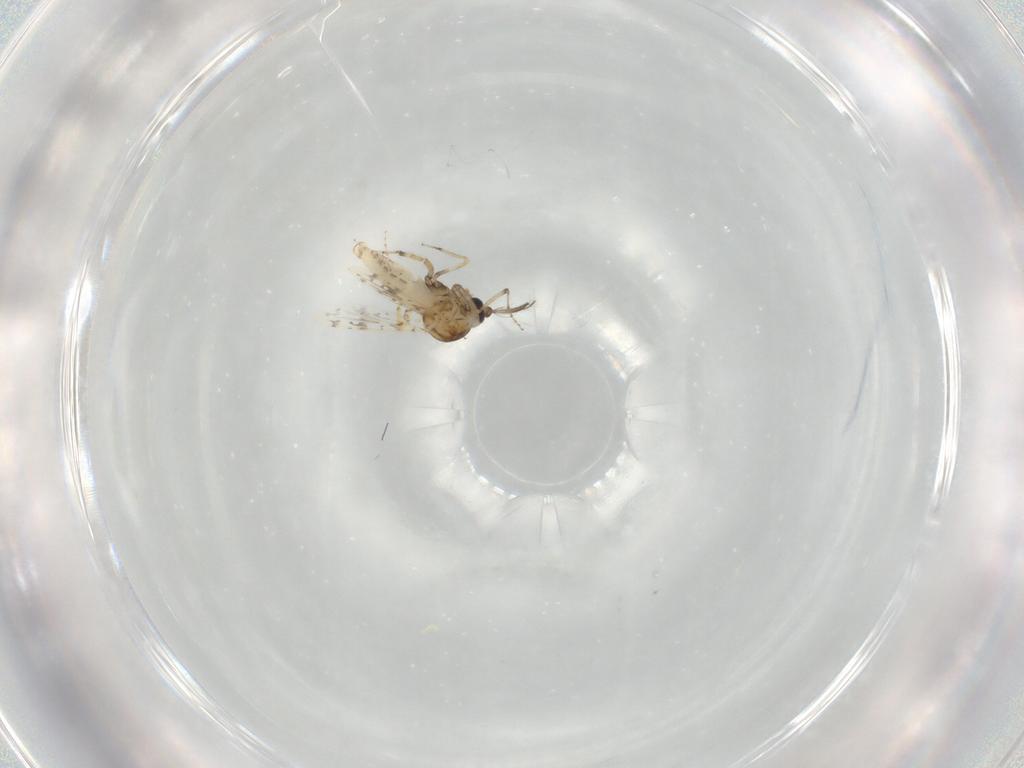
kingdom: Animalia
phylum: Arthropoda
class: Insecta
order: Diptera
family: Ceratopogonidae
